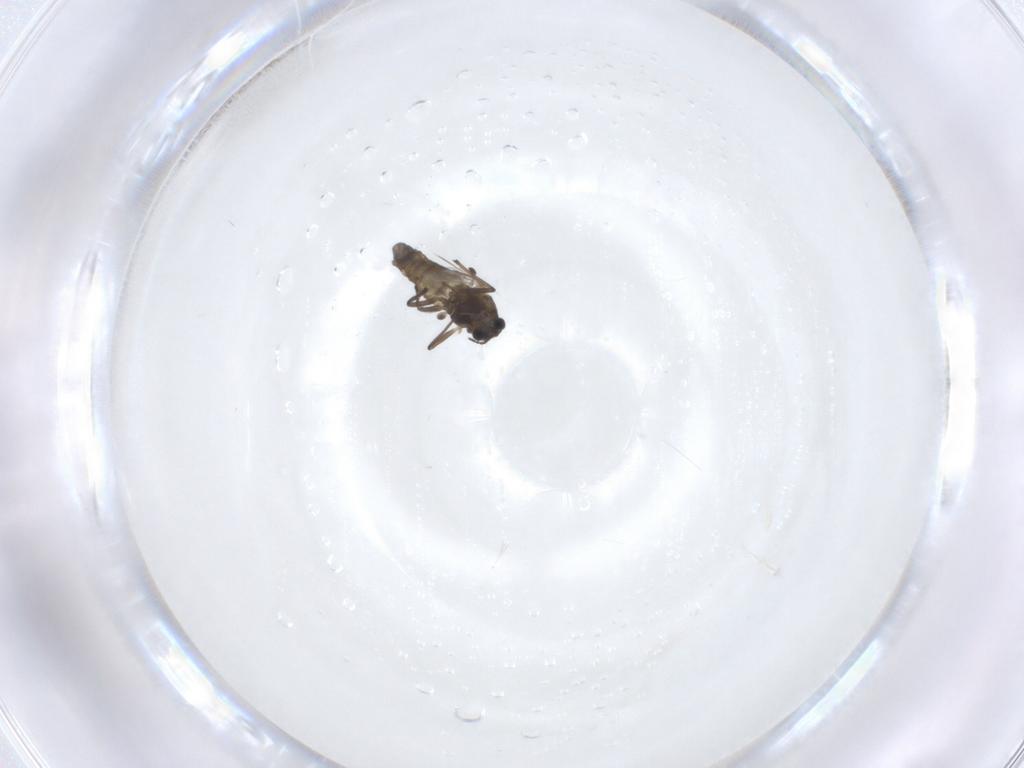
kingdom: Animalia
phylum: Arthropoda
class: Insecta
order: Diptera
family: Chironomidae
